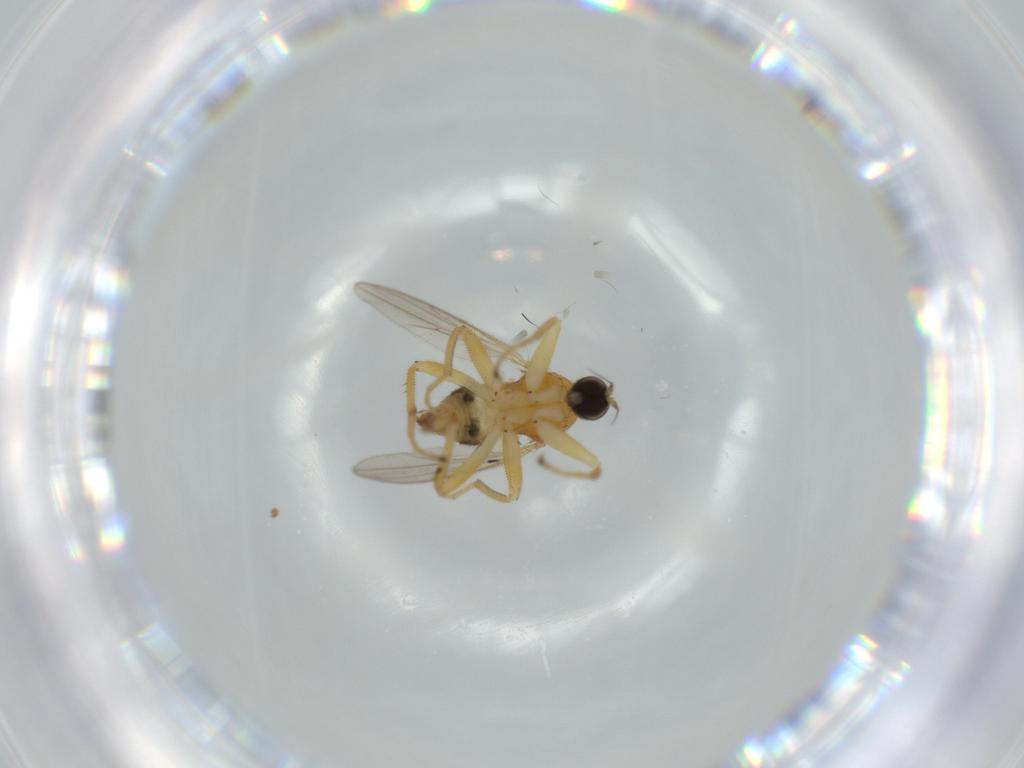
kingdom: Animalia
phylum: Arthropoda
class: Insecta
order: Diptera
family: Hybotidae
